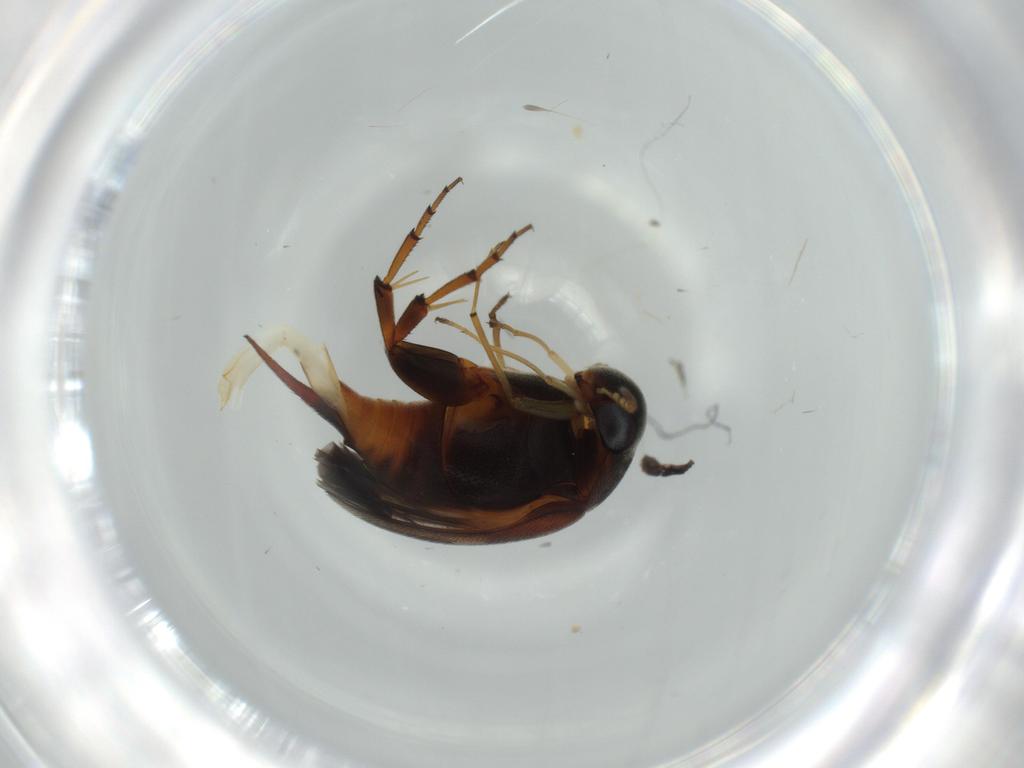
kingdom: Animalia
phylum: Arthropoda
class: Insecta
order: Coleoptera
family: Mordellidae
